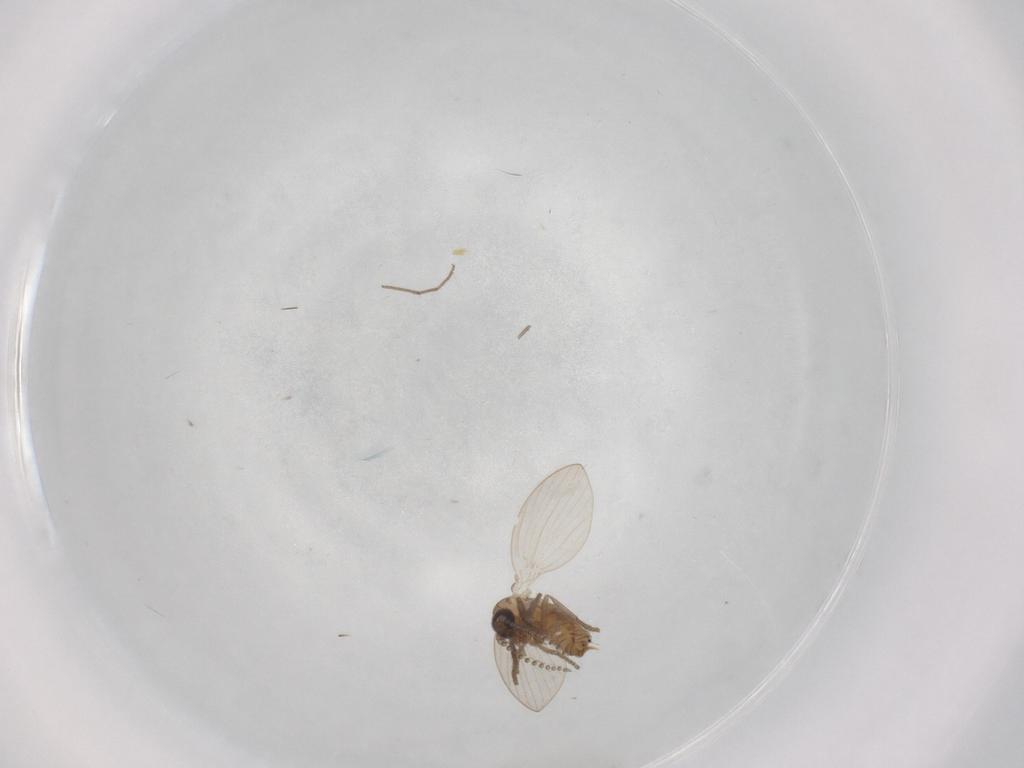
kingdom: Animalia
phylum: Arthropoda
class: Insecta
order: Diptera
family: Psychodidae
